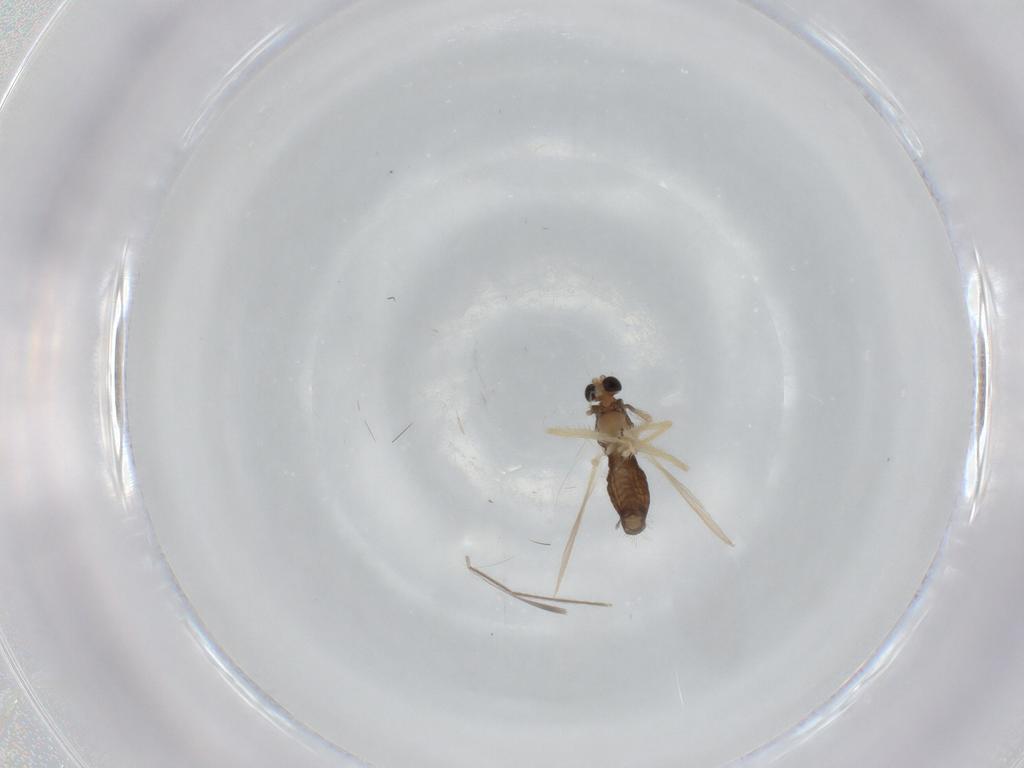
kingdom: Animalia
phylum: Arthropoda
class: Insecta
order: Diptera
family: Chironomidae
